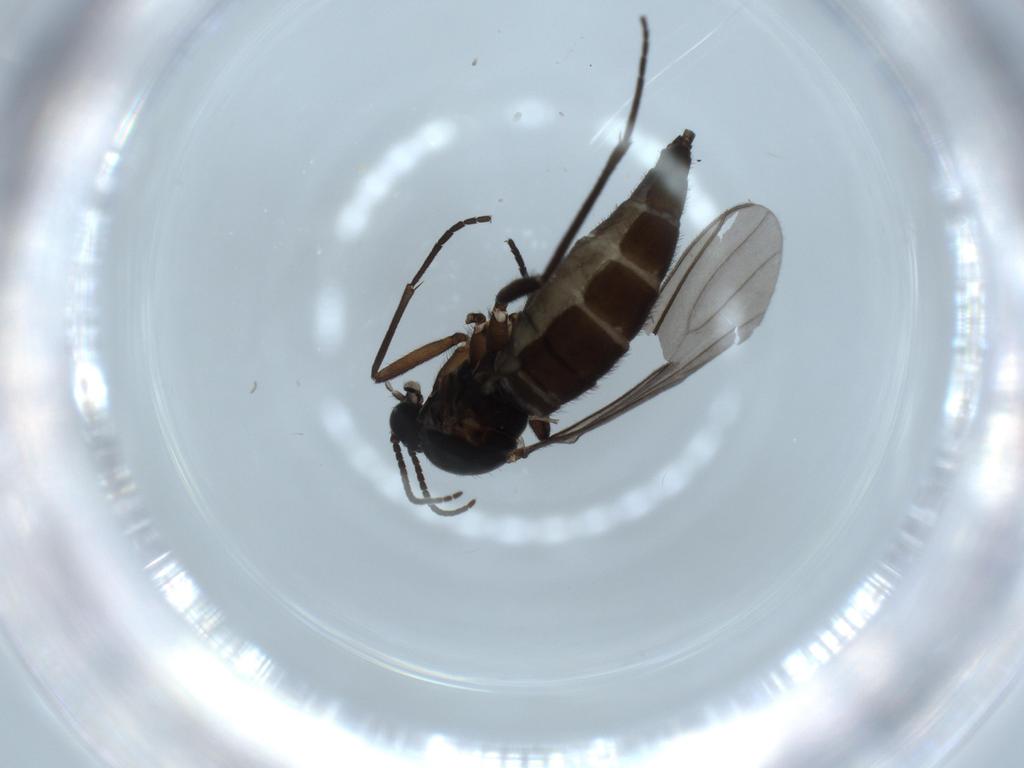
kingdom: Animalia
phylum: Arthropoda
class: Insecta
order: Diptera
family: Sciaridae
